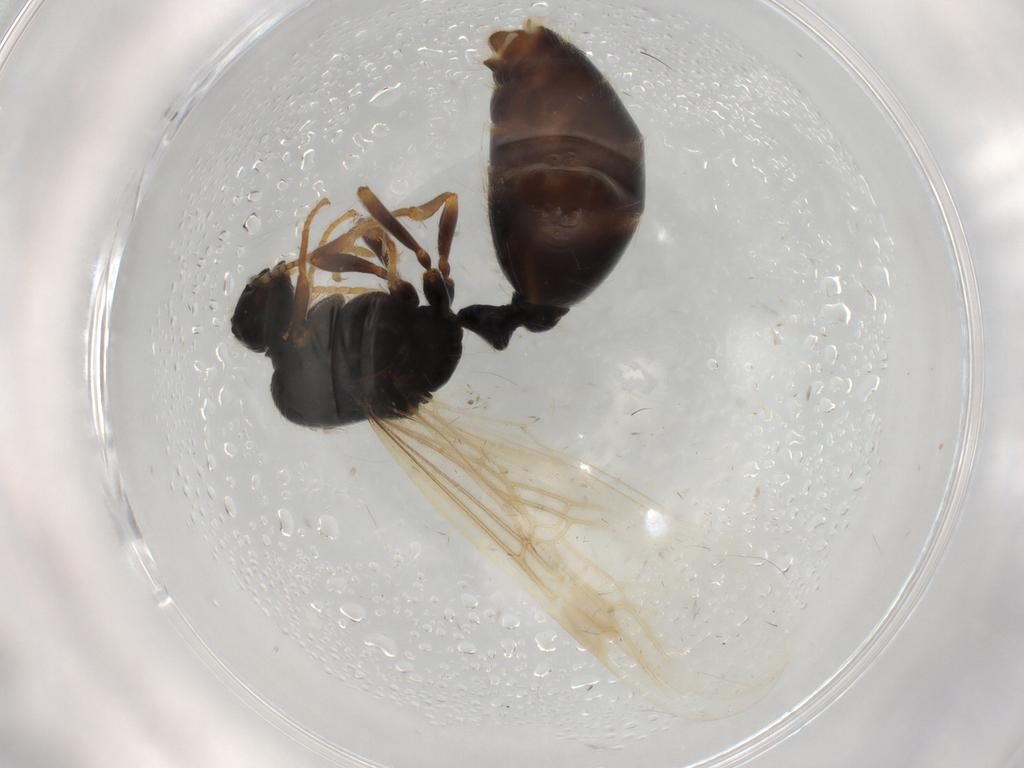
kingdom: Animalia
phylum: Arthropoda
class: Insecta
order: Hymenoptera
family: Formicidae
